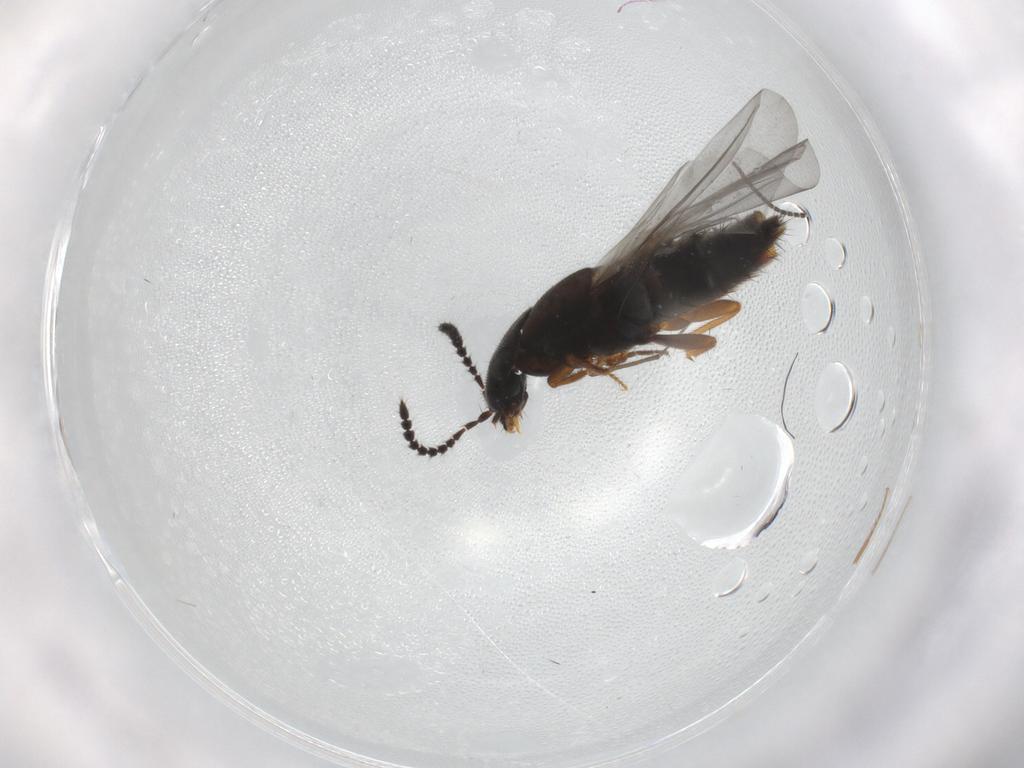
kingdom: Animalia
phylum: Arthropoda
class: Insecta
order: Coleoptera
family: Staphylinidae
